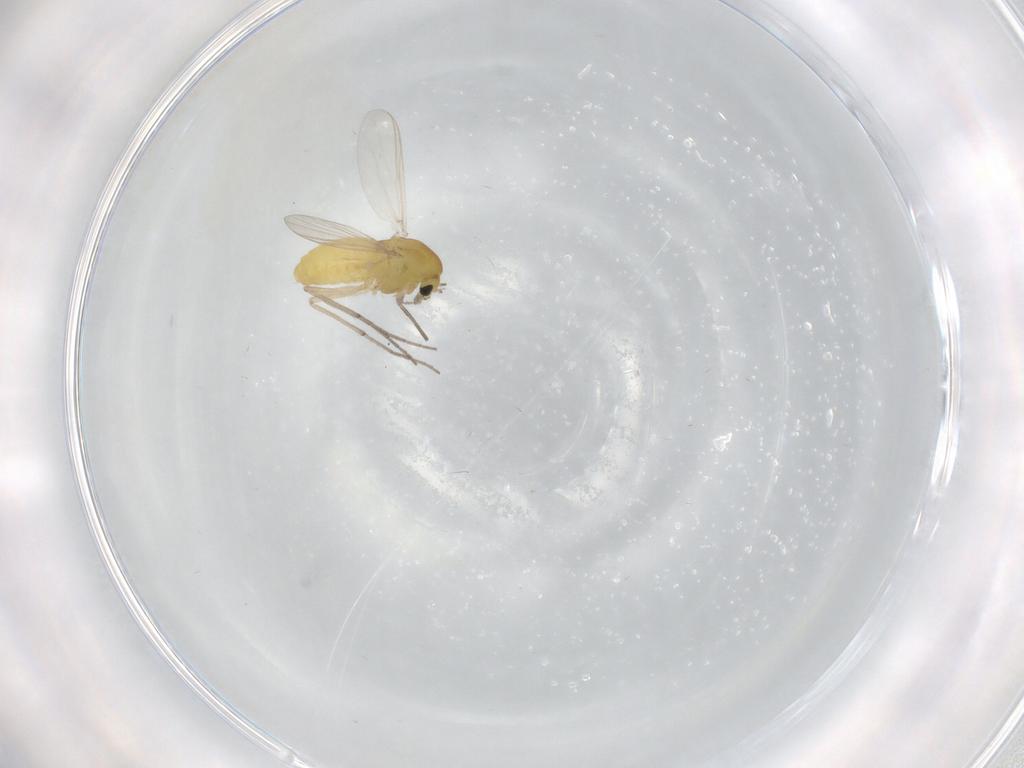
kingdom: Animalia
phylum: Arthropoda
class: Insecta
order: Diptera
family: Chironomidae
